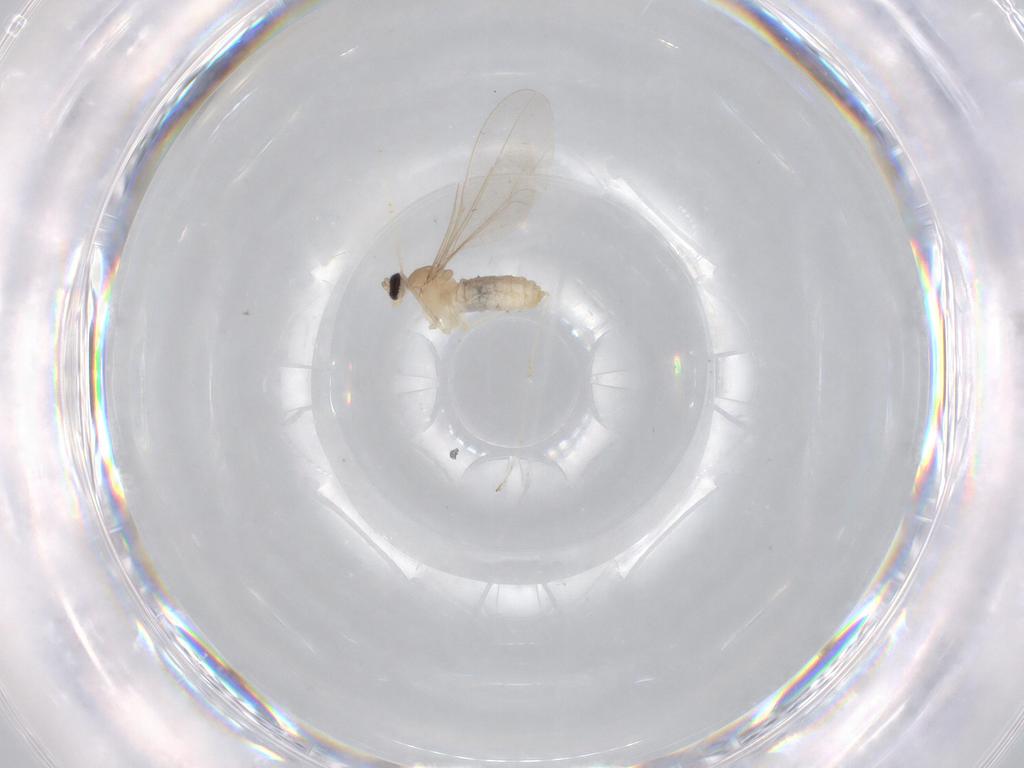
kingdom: Animalia
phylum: Arthropoda
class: Insecta
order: Diptera
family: Cecidomyiidae
